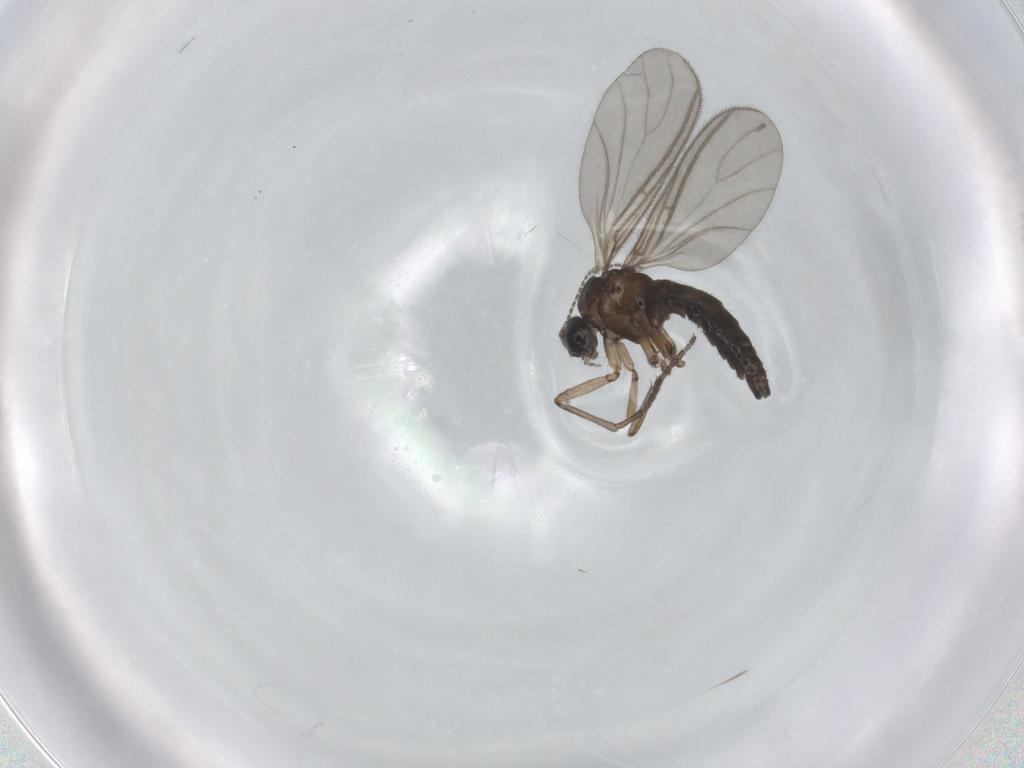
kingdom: Animalia
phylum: Arthropoda
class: Insecta
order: Diptera
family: Sciaridae
